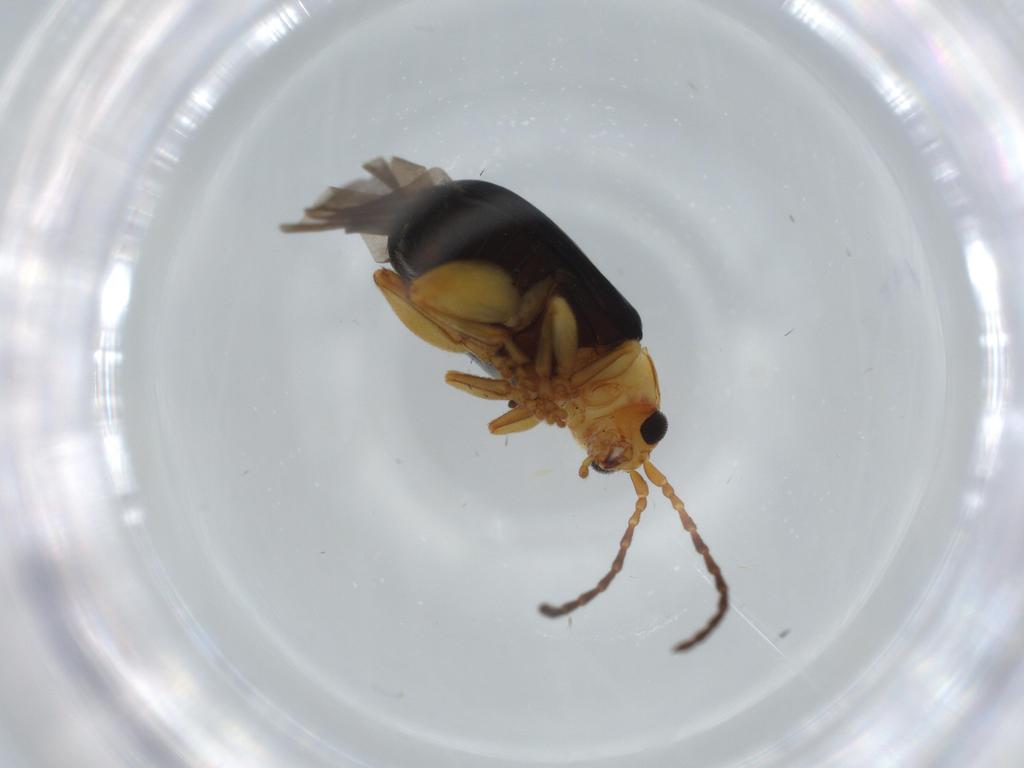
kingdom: Animalia
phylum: Arthropoda
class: Insecta
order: Coleoptera
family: Chrysomelidae
